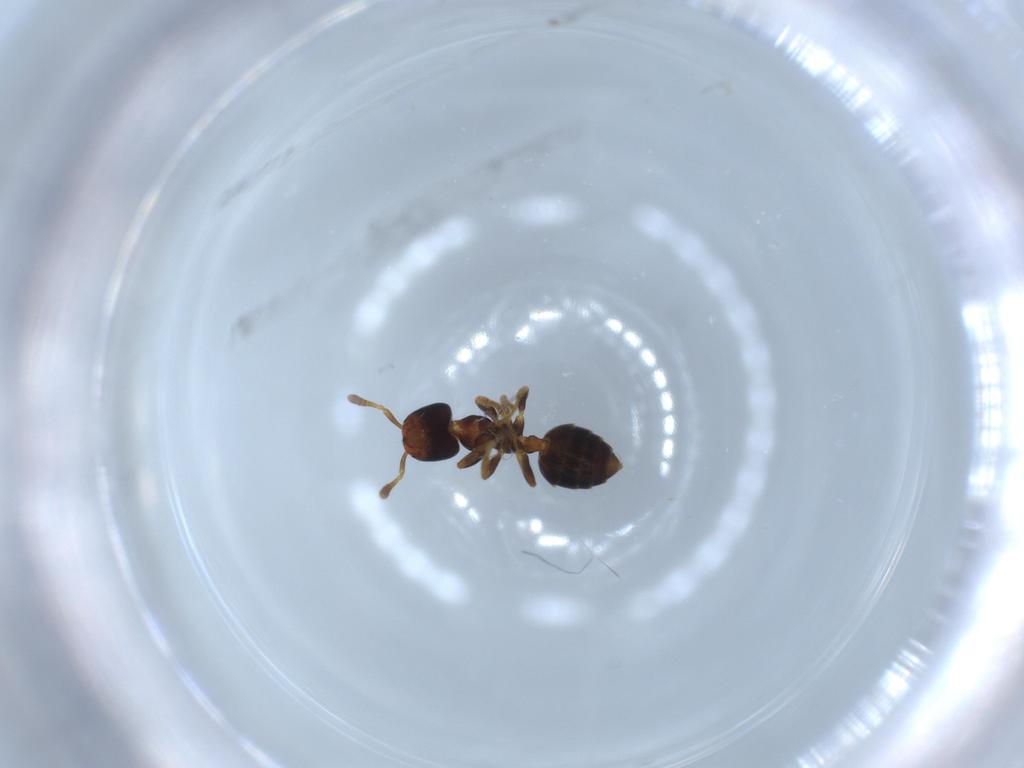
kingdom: Animalia
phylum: Arthropoda
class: Insecta
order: Hymenoptera
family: Formicidae
